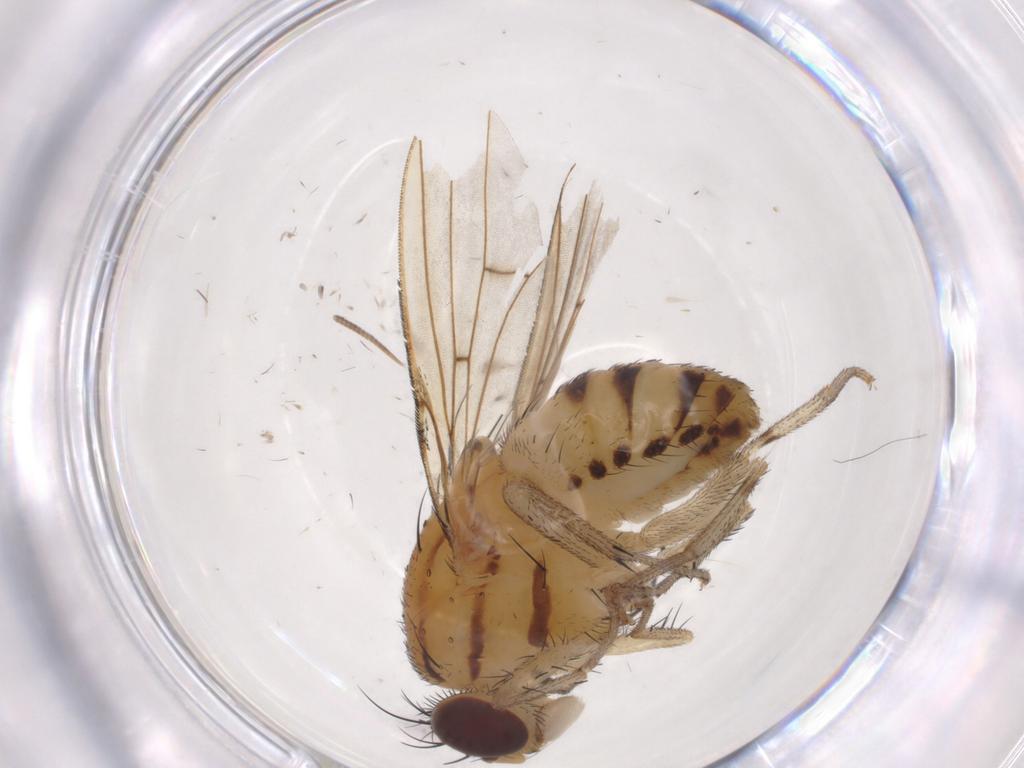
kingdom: Animalia
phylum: Arthropoda
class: Insecta
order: Diptera
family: Lauxaniidae
